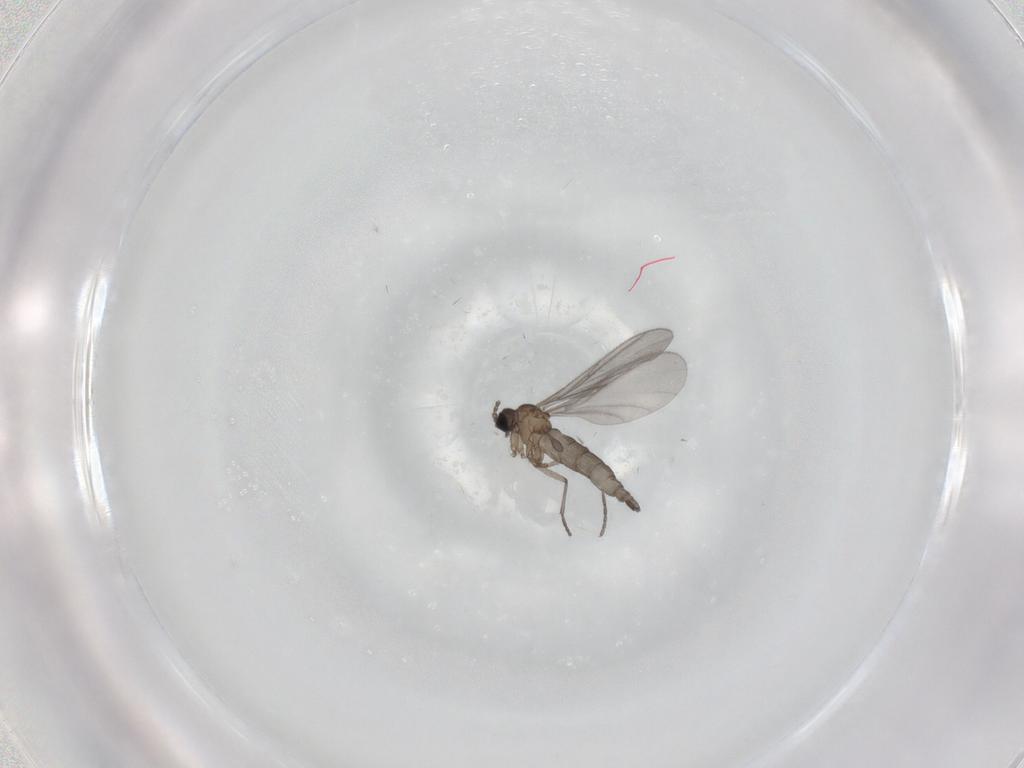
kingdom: Animalia
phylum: Arthropoda
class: Insecta
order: Diptera
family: Sciaridae
